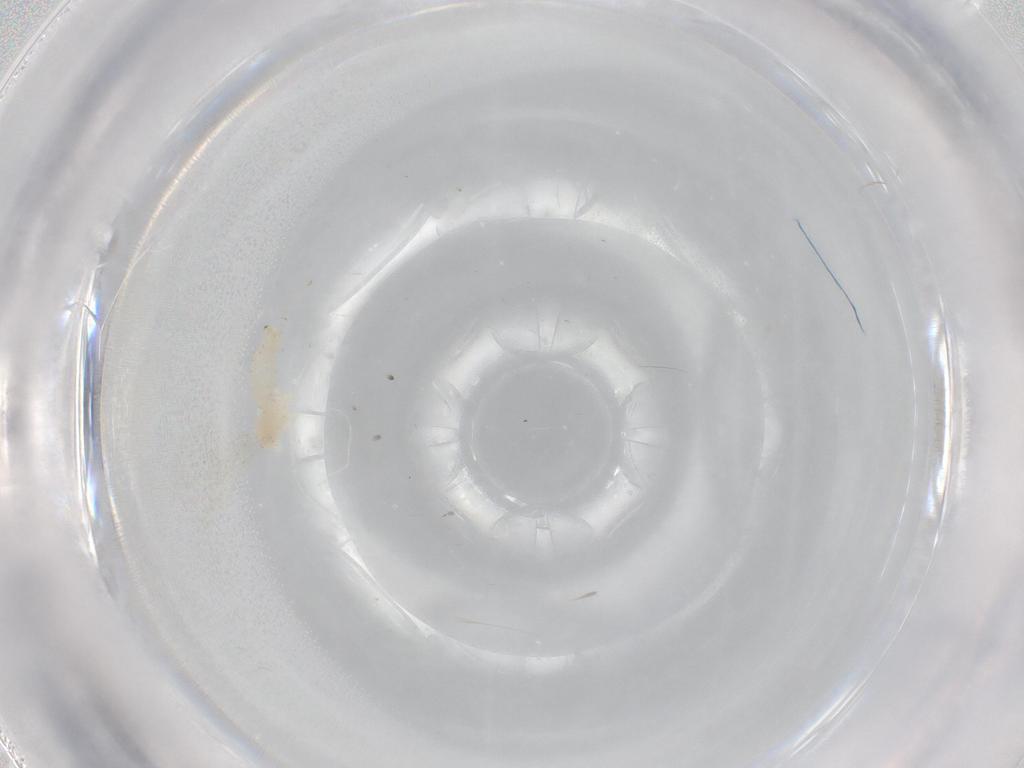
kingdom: Animalia
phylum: Arthropoda
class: Insecta
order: Diptera
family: Cecidomyiidae
